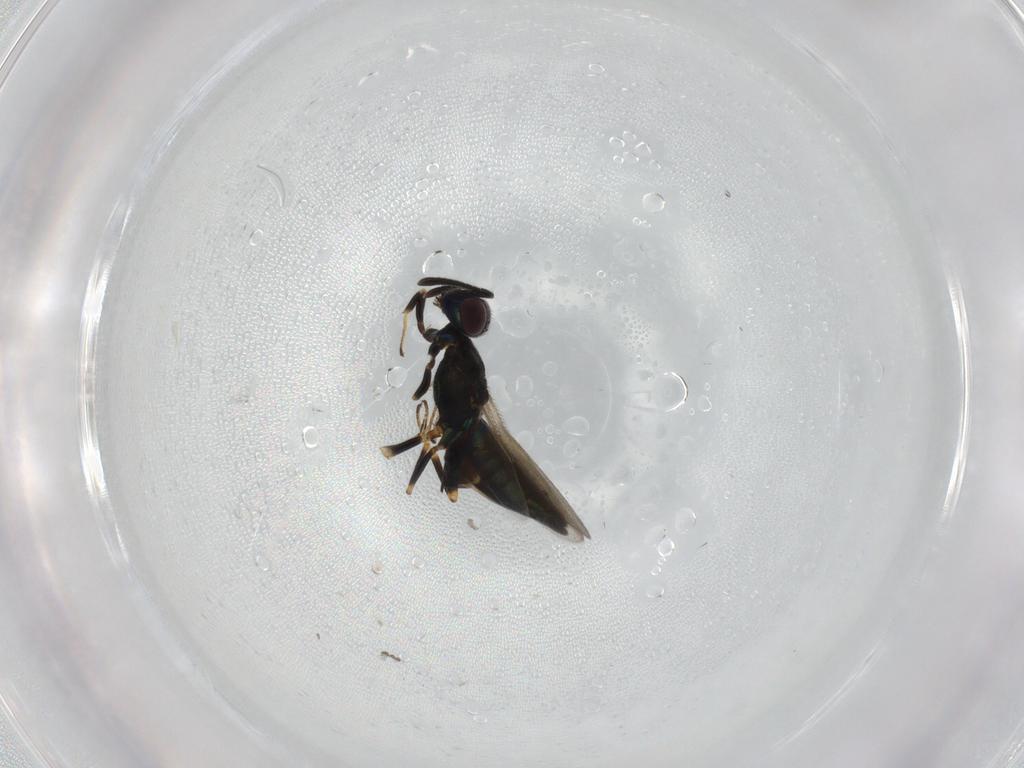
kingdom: Animalia
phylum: Arthropoda
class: Insecta
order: Hymenoptera
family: Eupelmidae
